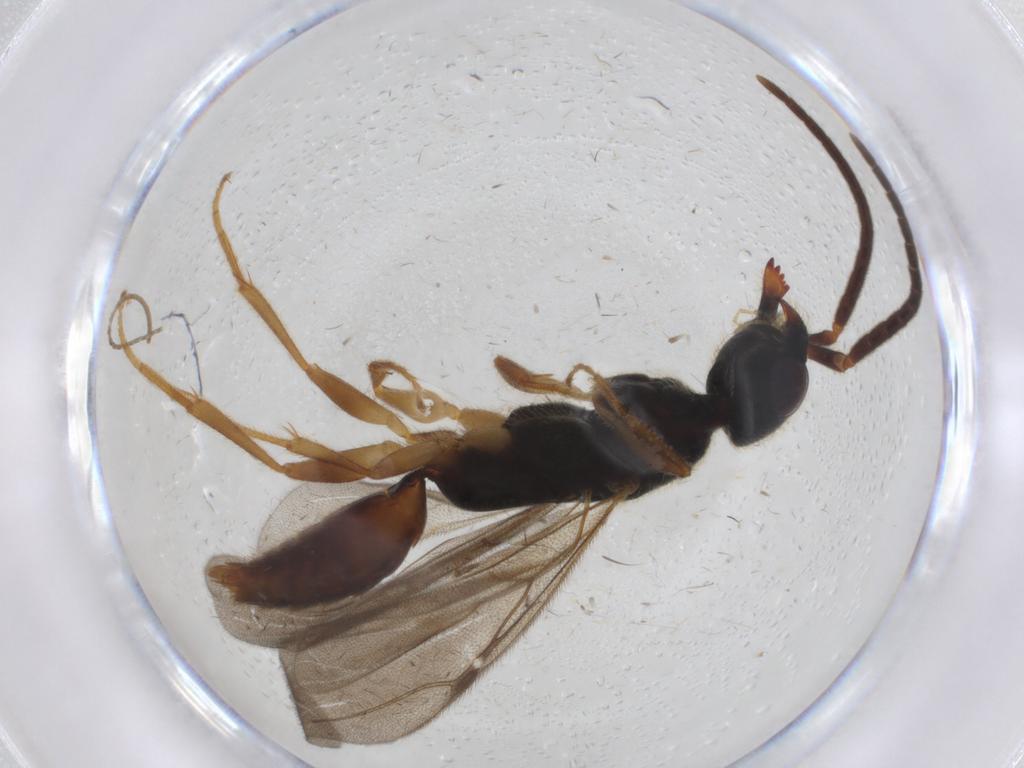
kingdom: Animalia
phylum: Arthropoda
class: Insecta
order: Hymenoptera
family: Bethylidae
